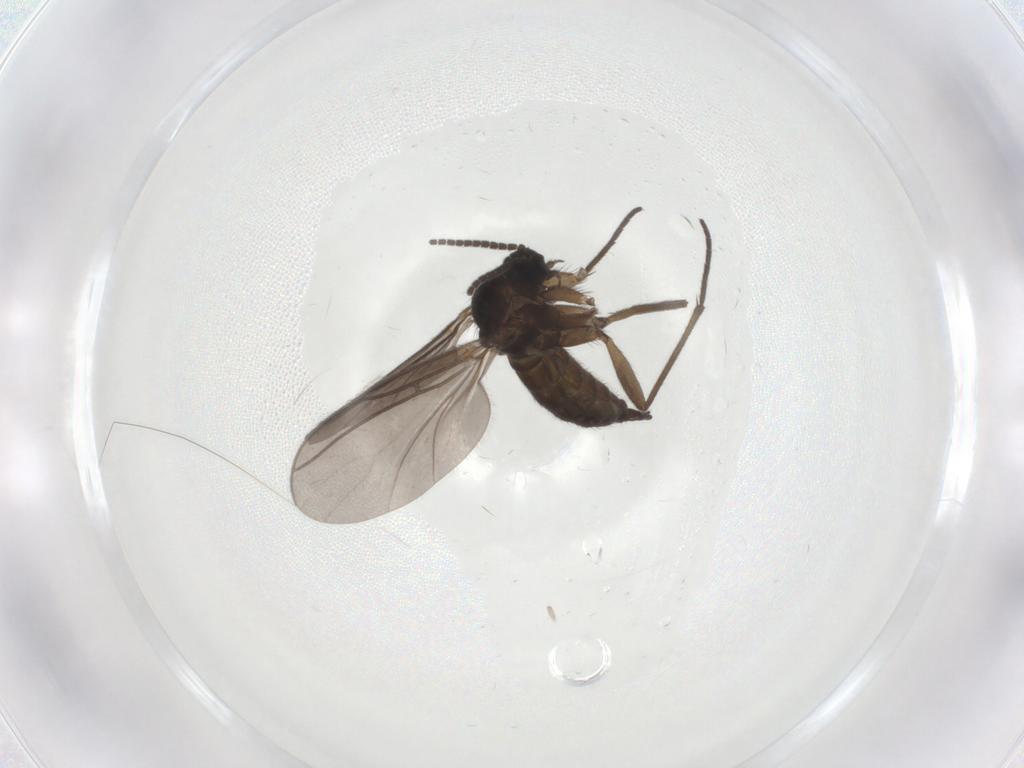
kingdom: Animalia
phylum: Arthropoda
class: Insecta
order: Diptera
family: Sciaridae
